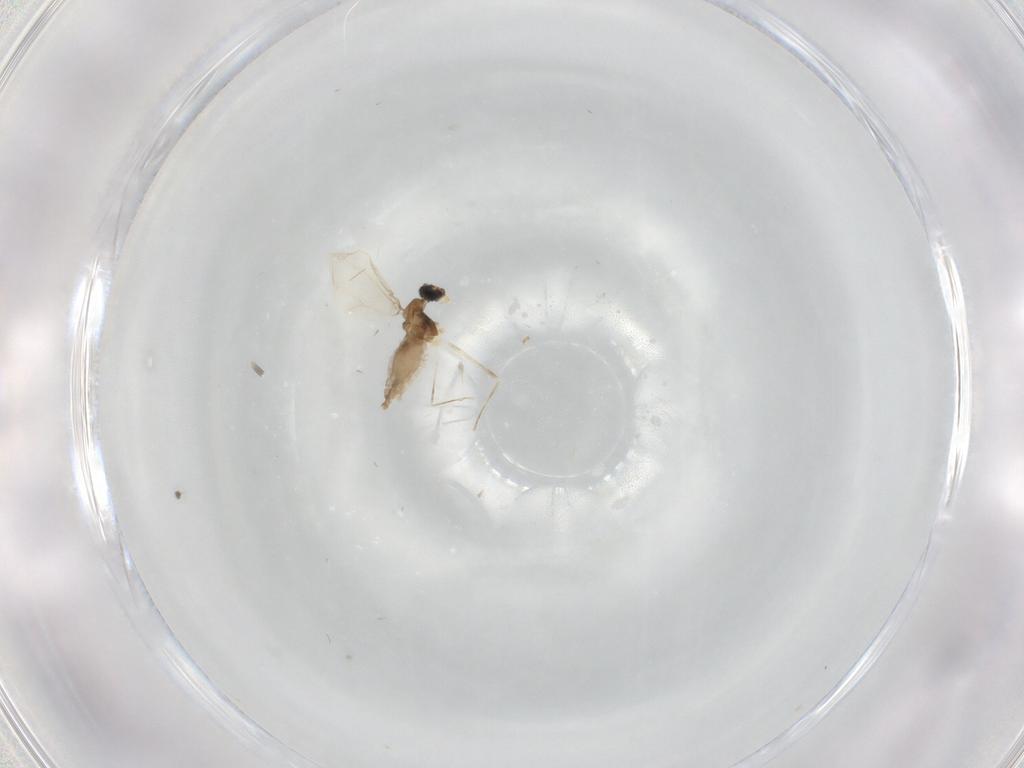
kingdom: Animalia
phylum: Arthropoda
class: Insecta
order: Diptera
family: Cecidomyiidae
